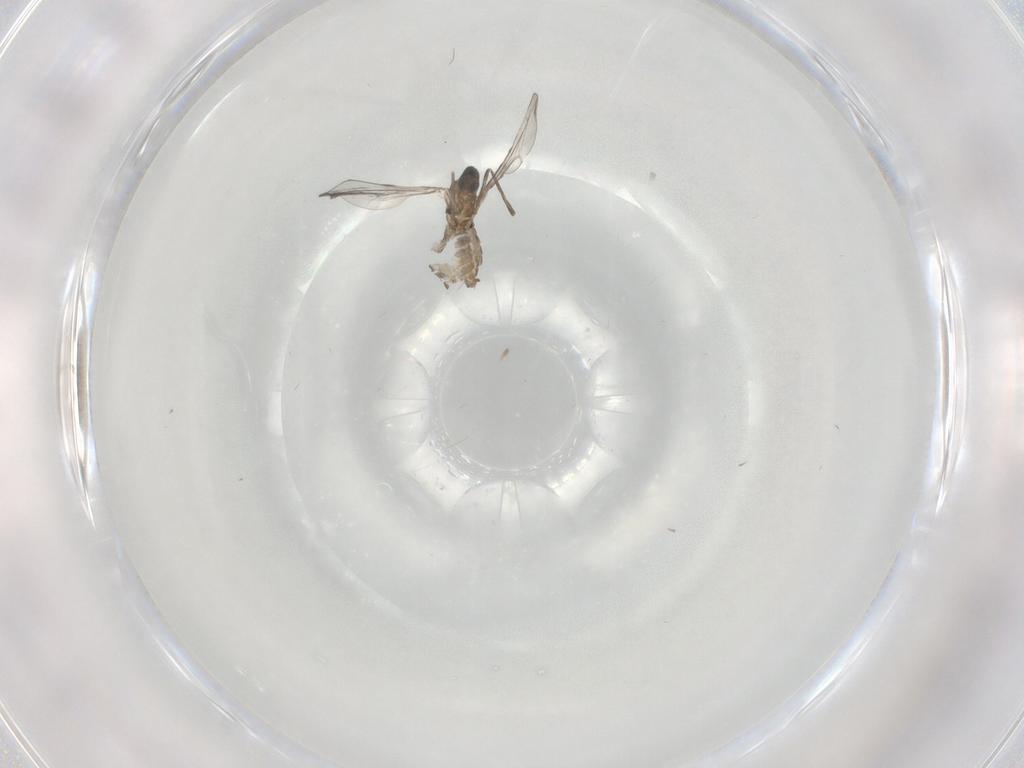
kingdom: Animalia
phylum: Arthropoda
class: Insecta
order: Diptera
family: Cecidomyiidae
